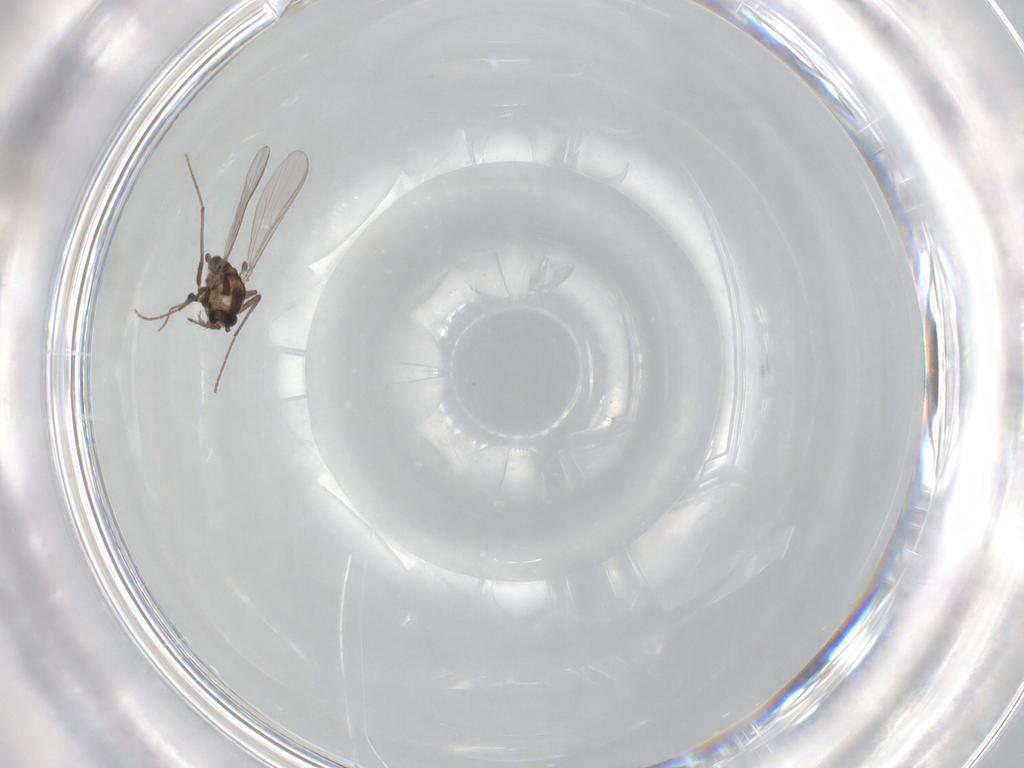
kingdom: Animalia
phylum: Arthropoda
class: Insecta
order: Diptera
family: Chironomidae
